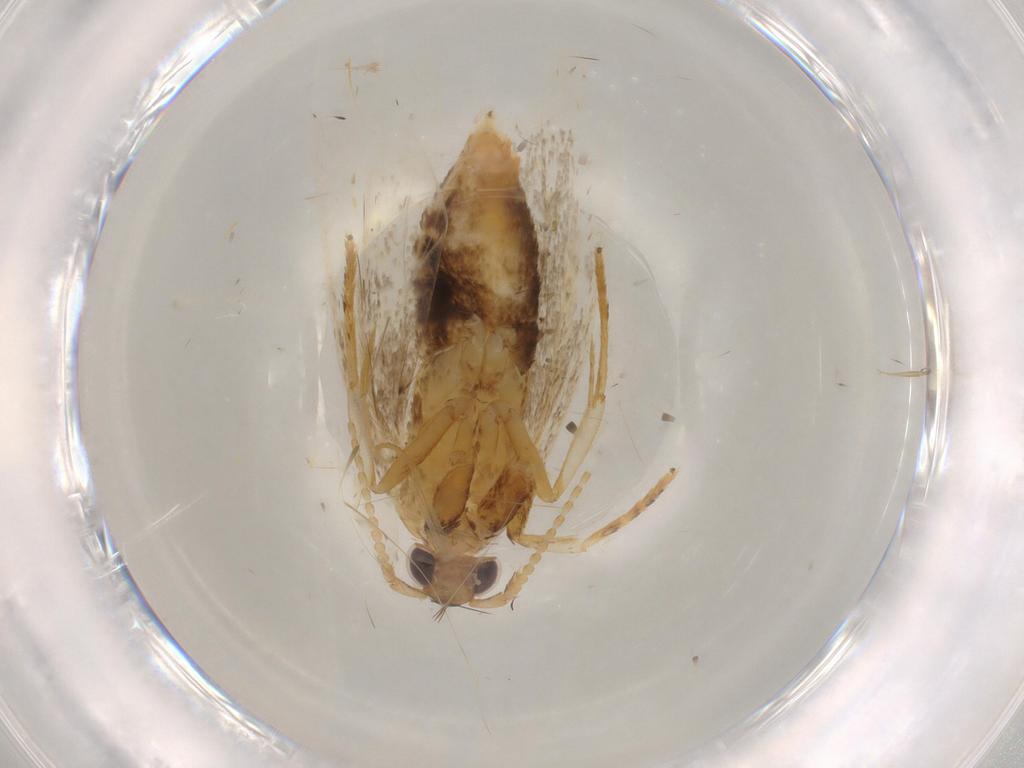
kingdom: Animalia
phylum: Arthropoda
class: Insecta
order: Lepidoptera
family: Lecithoceridae
